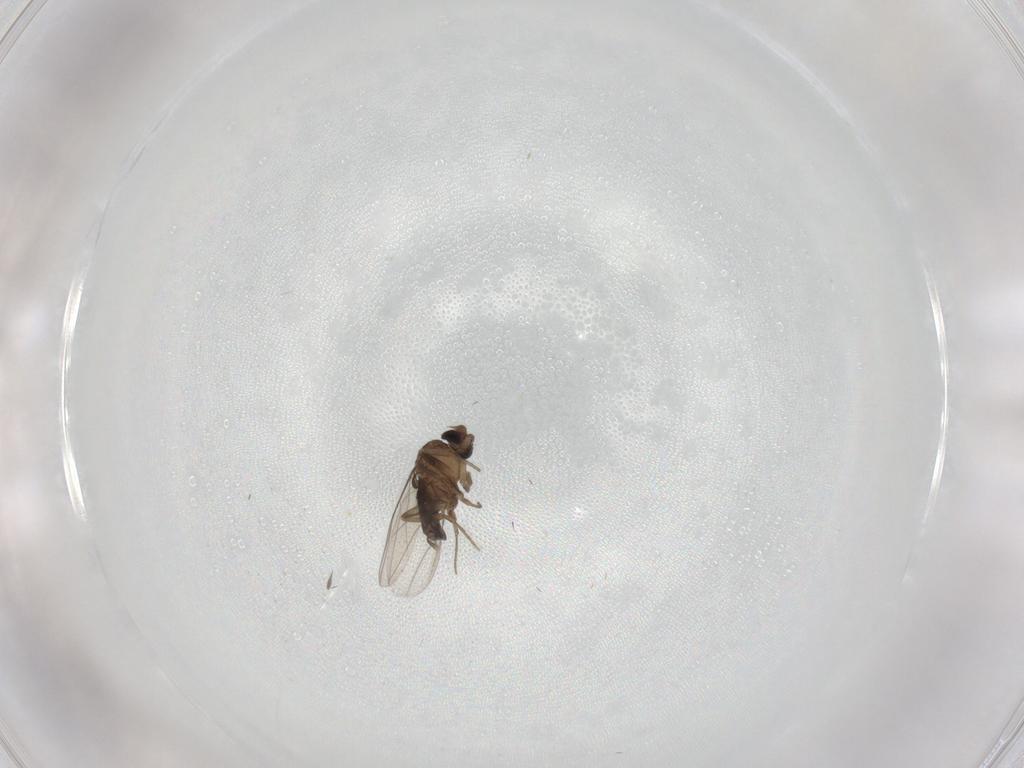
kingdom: Animalia
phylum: Arthropoda
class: Insecta
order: Diptera
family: Phoridae
